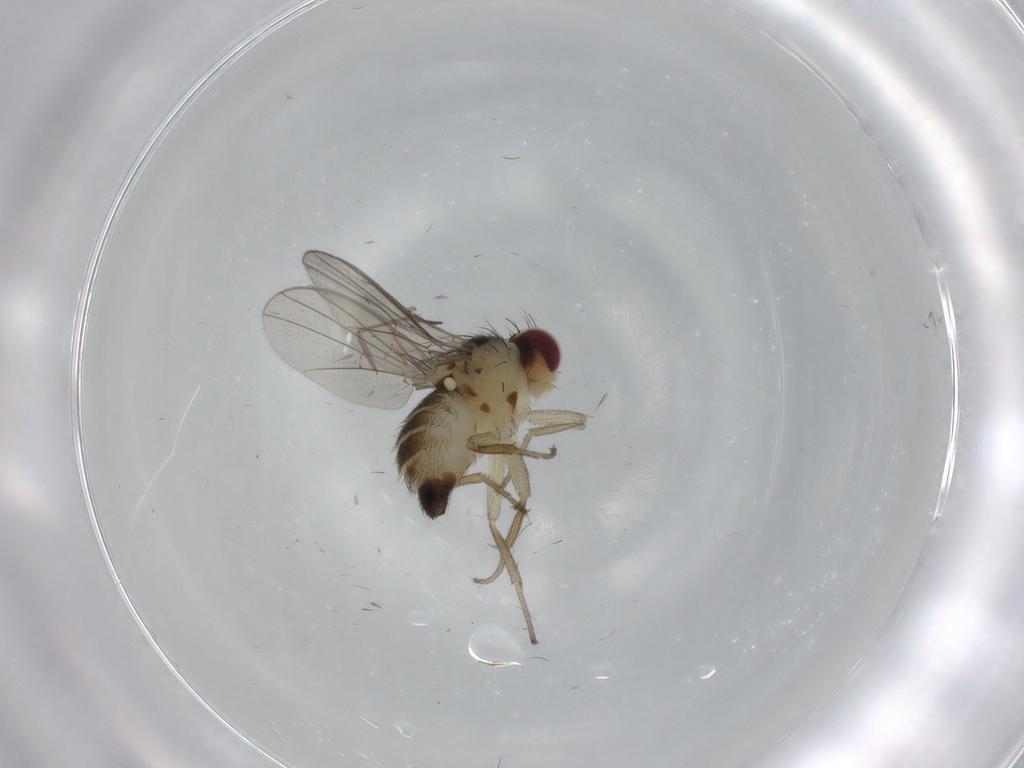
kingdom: Animalia
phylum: Arthropoda
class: Insecta
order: Diptera
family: Agromyzidae
